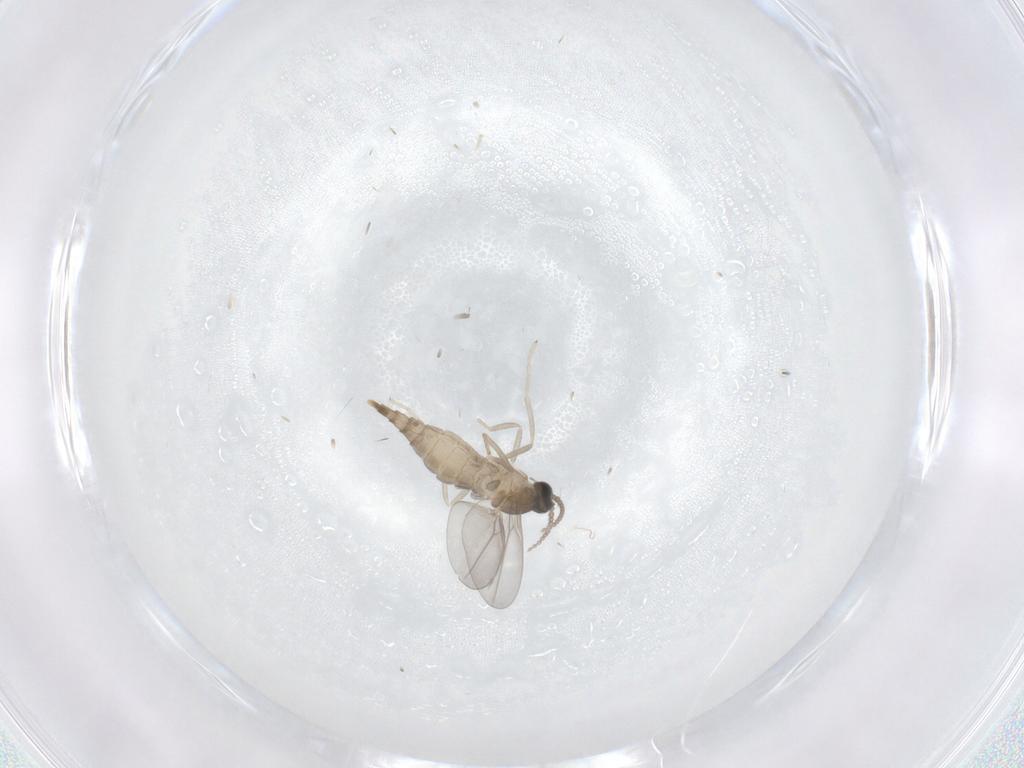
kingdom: Animalia
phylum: Arthropoda
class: Insecta
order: Diptera
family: Cecidomyiidae
